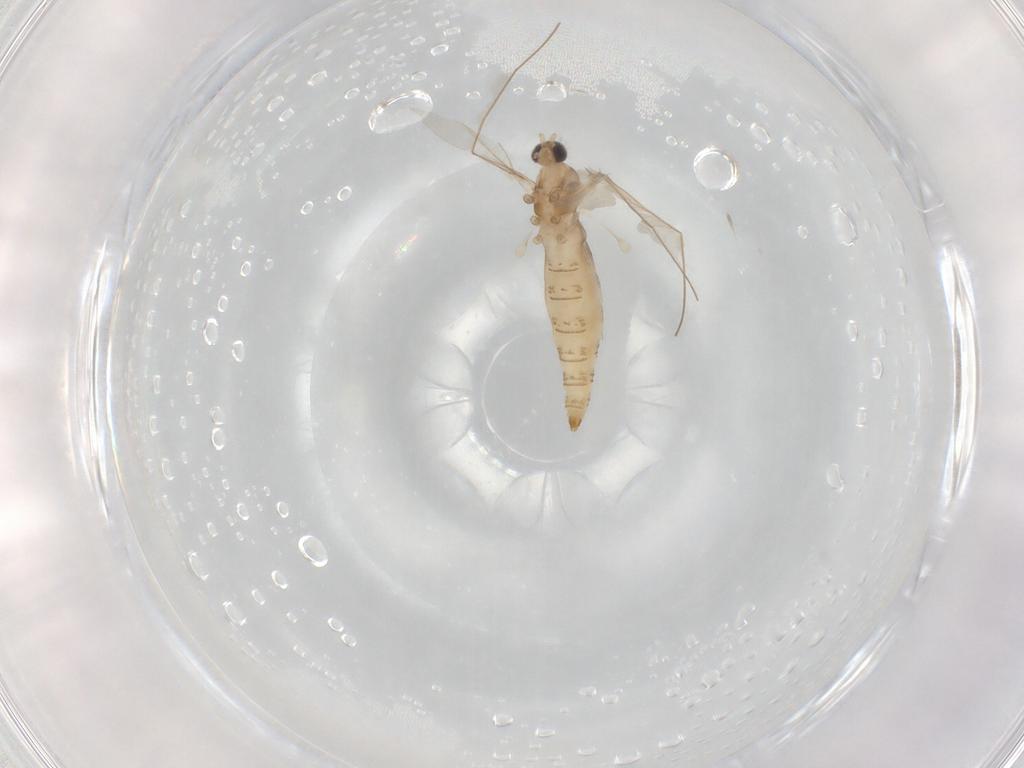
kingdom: Animalia
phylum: Arthropoda
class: Insecta
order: Diptera
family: Cecidomyiidae
